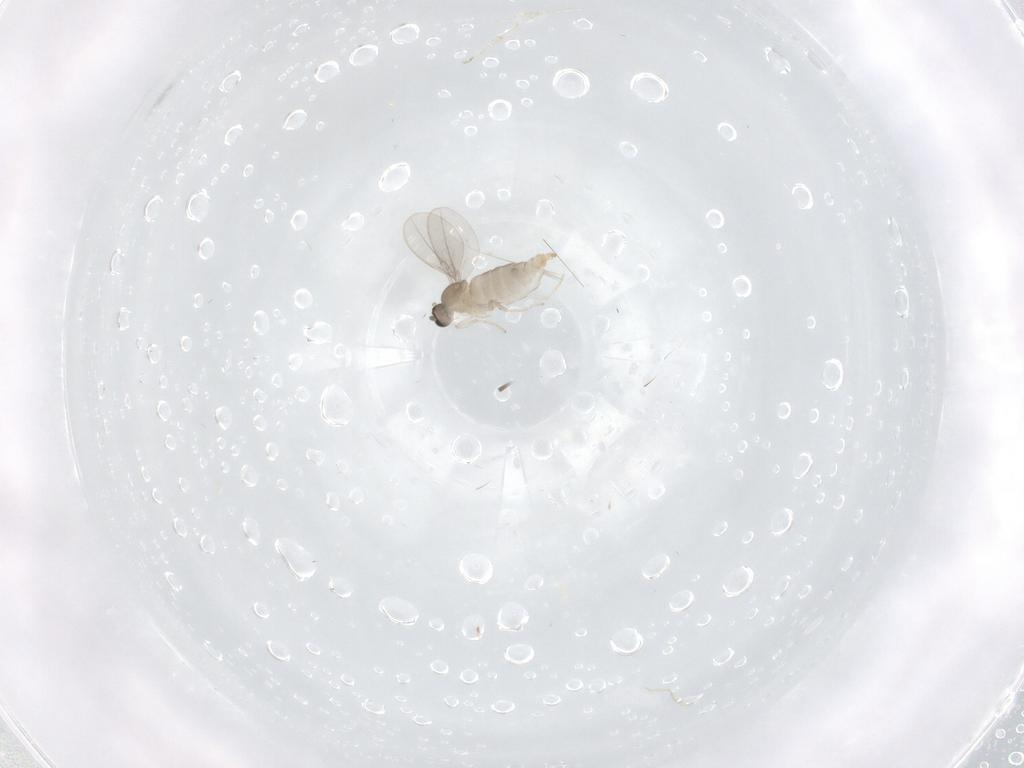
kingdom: Animalia
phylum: Arthropoda
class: Insecta
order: Diptera
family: Cecidomyiidae
